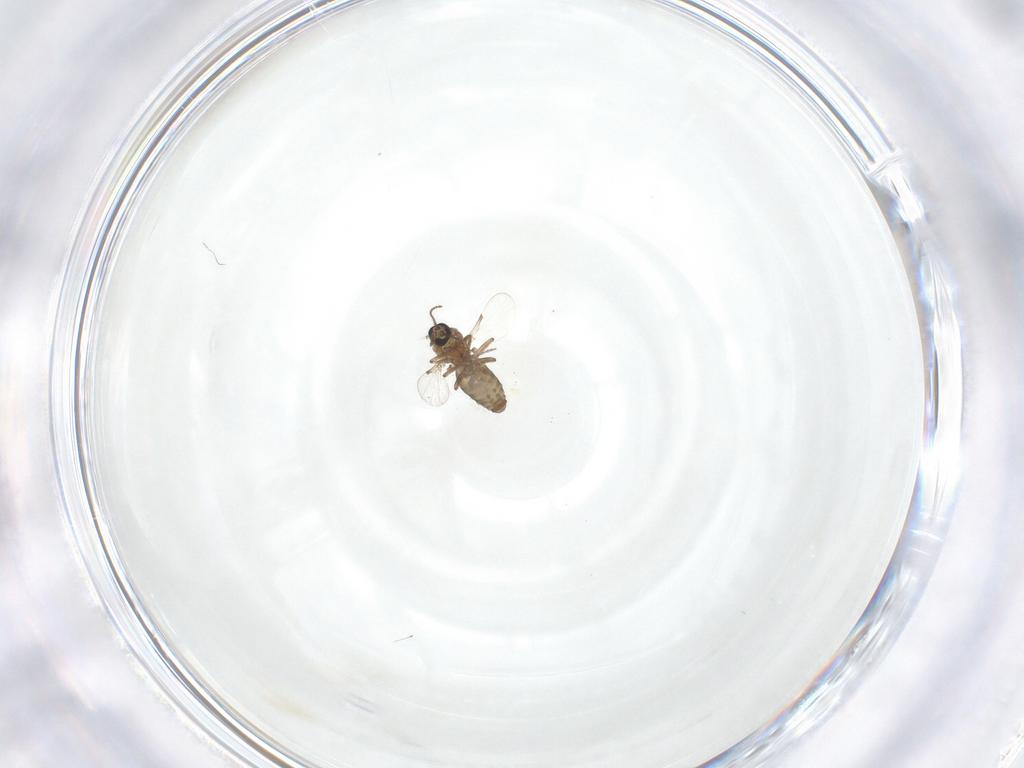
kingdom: Animalia
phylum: Arthropoda
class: Insecta
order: Diptera
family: Ceratopogonidae
